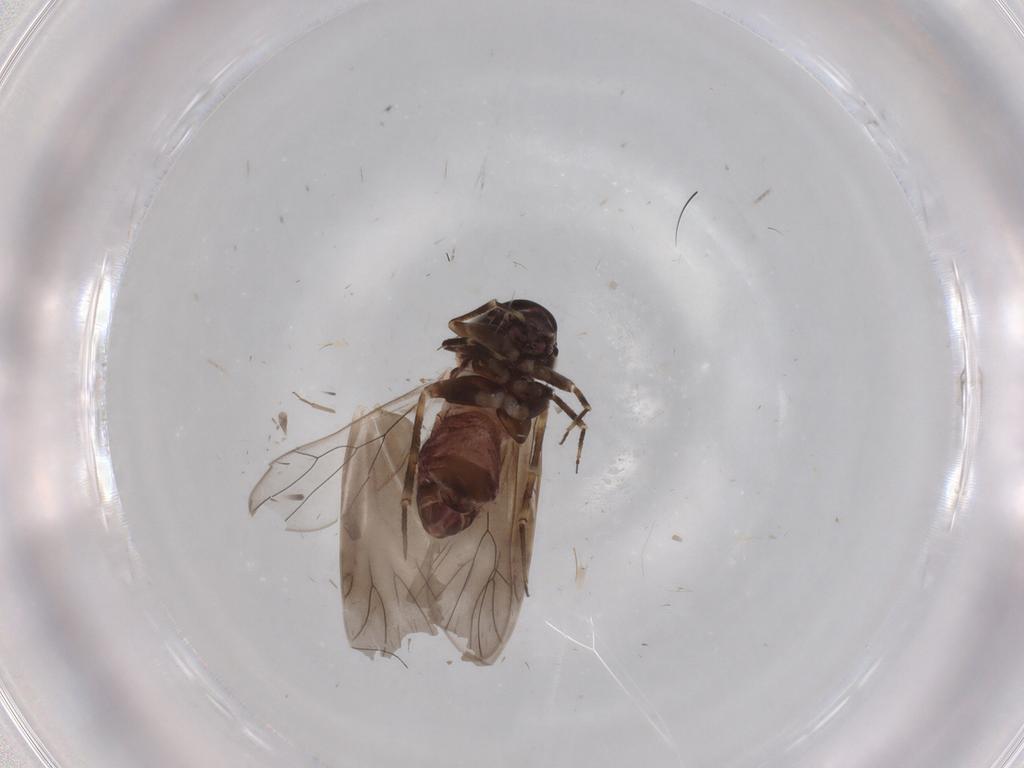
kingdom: Animalia
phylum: Arthropoda
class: Insecta
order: Psocodea
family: Amphientomidae
